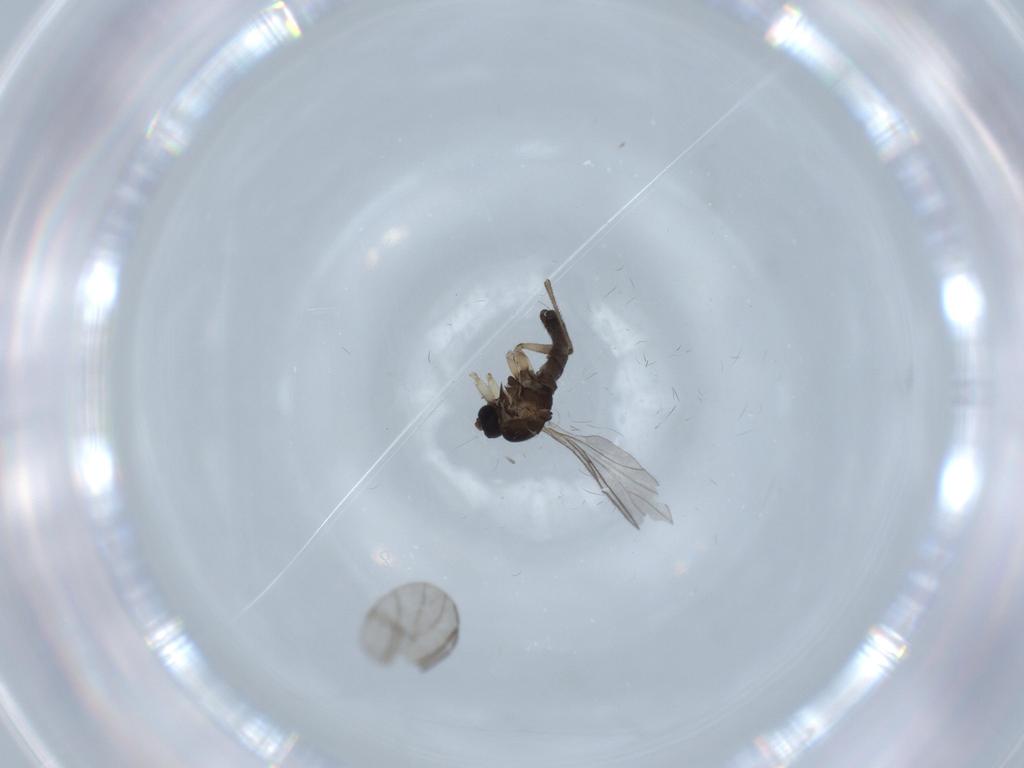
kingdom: Animalia
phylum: Arthropoda
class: Insecta
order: Diptera
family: Sciaridae
